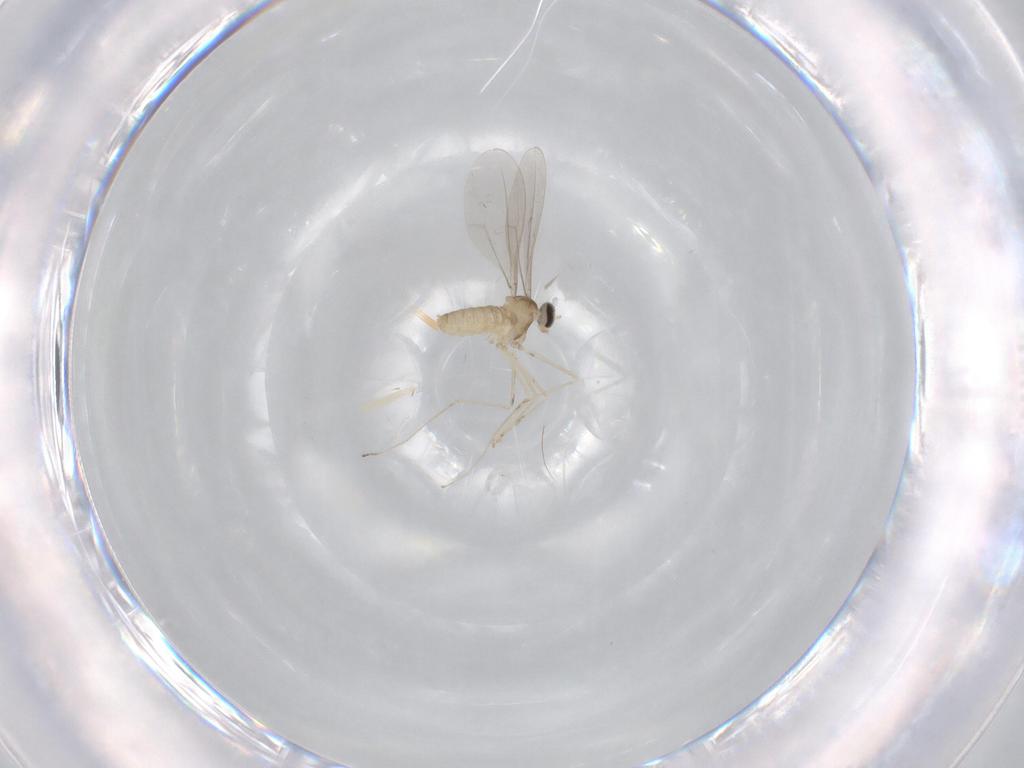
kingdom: Animalia
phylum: Arthropoda
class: Insecta
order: Diptera
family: Cecidomyiidae
